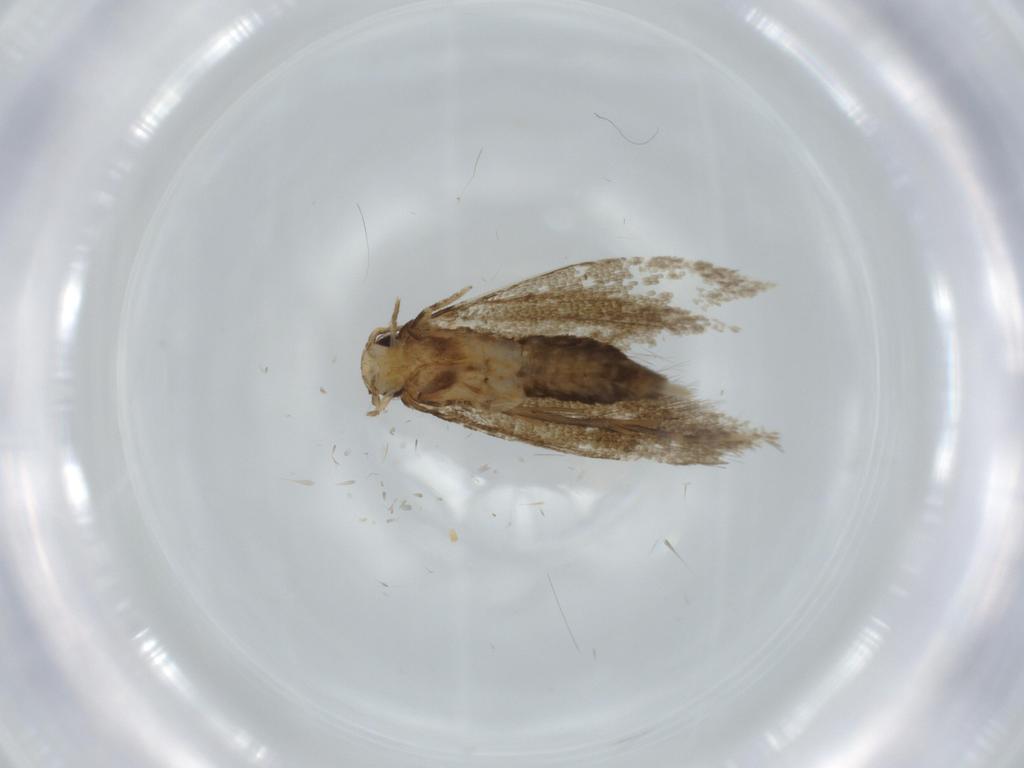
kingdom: Animalia
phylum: Arthropoda
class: Insecta
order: Lepidoptera
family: Tineidae
